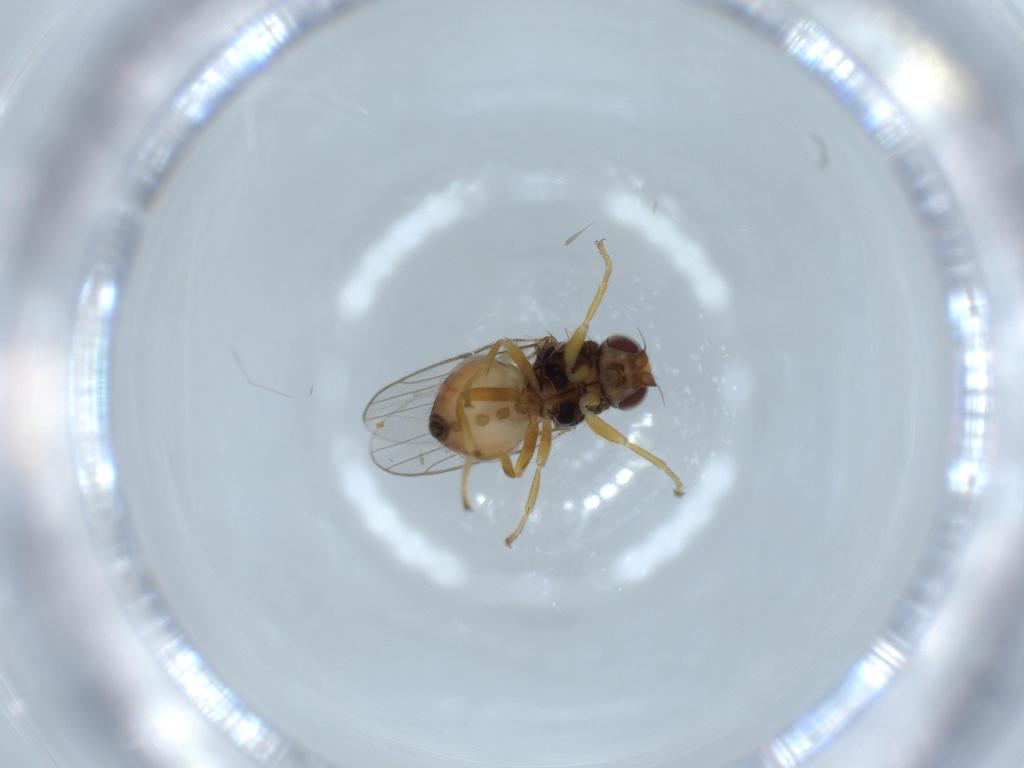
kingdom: Animalia
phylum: Arthropoda
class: Insecta
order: Diptera
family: Chloropidae
